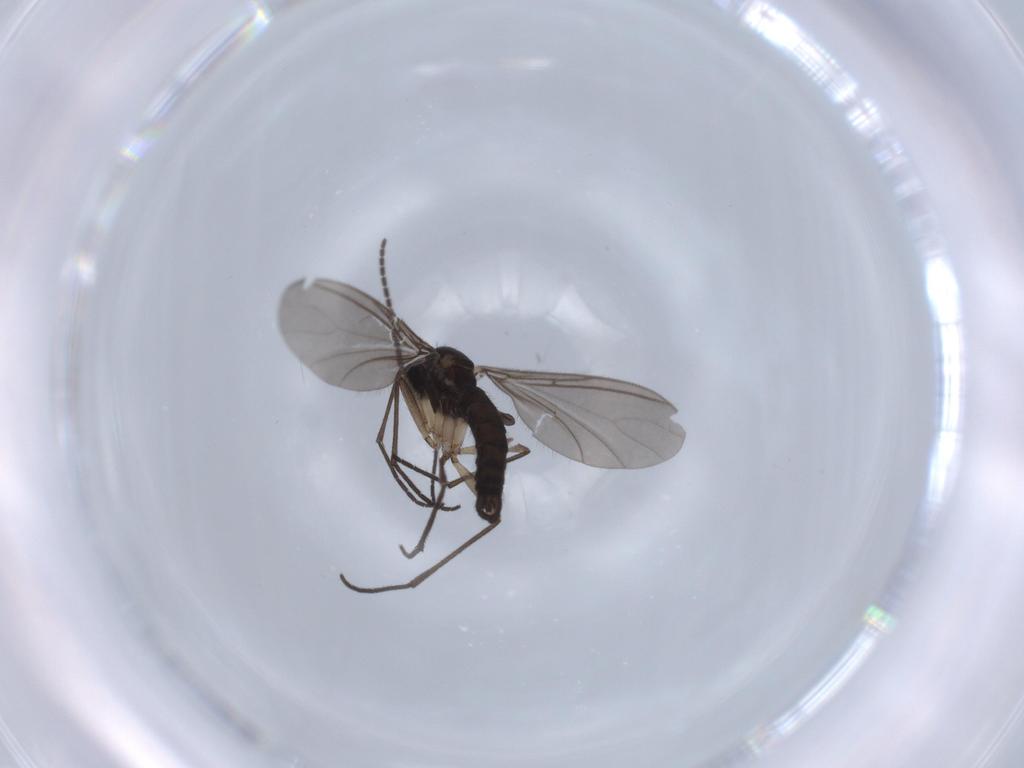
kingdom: Animalia
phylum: Arthropoda
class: Insecta
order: Diptera
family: Sciaridae
